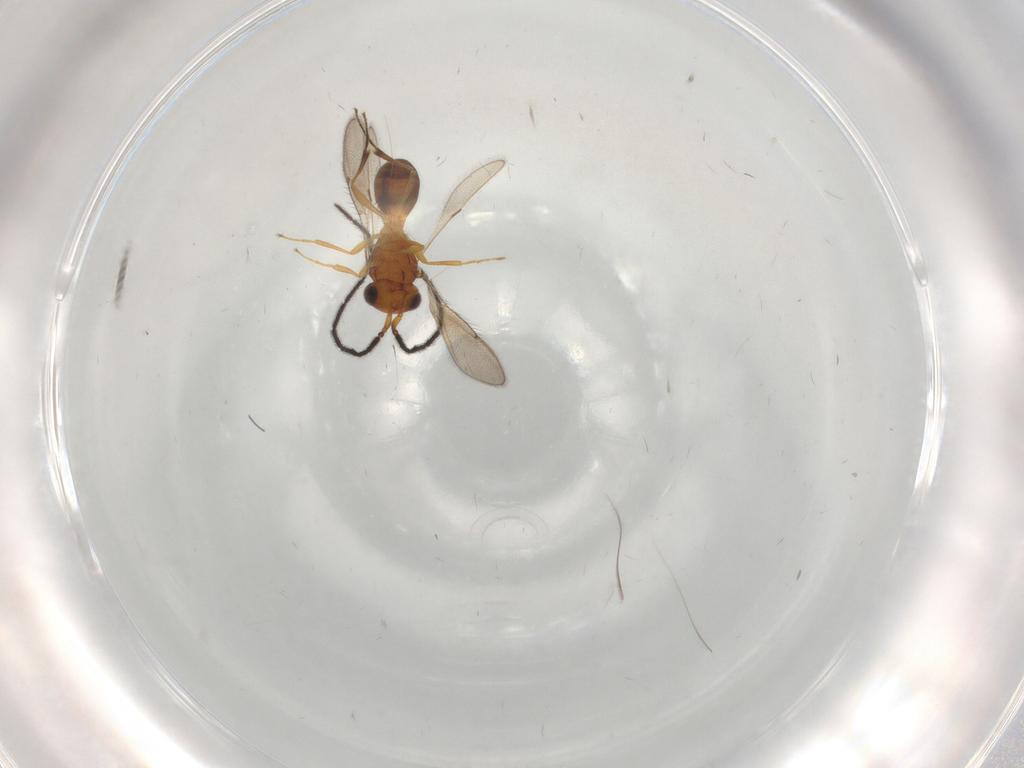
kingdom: Animalia
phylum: Arthropoda
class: Insecta
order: Hymenoptera
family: Scelionidae
